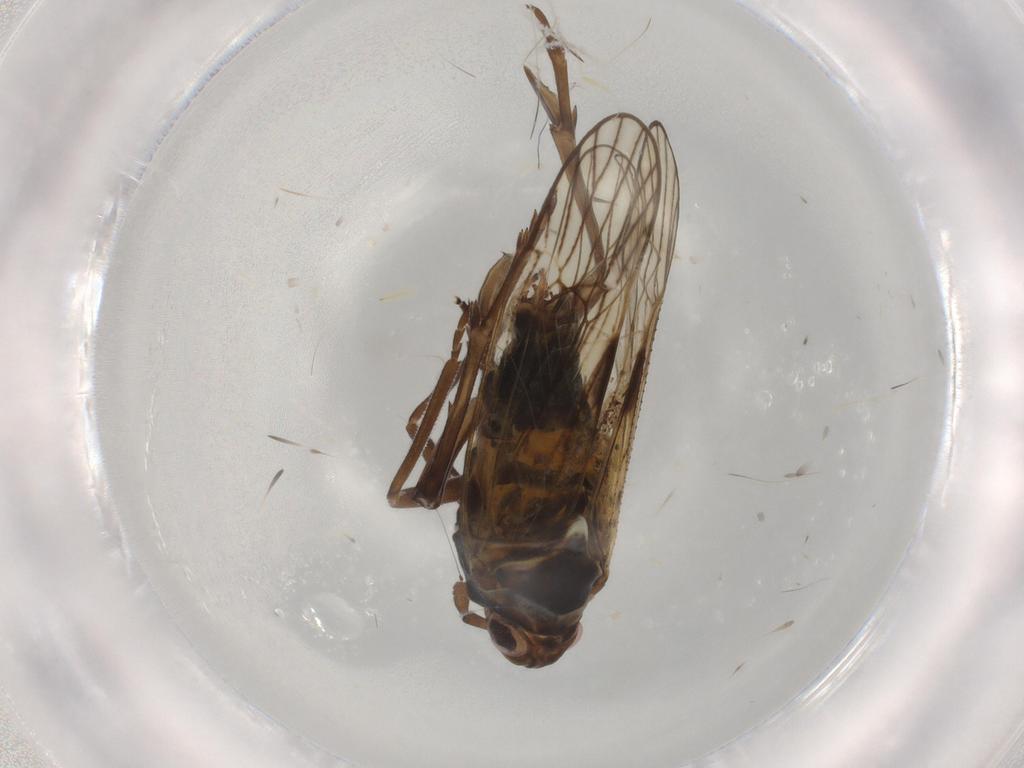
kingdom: Animalia
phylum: Arthropoda
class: Insecta
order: Hemiptera
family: Delphacidae
